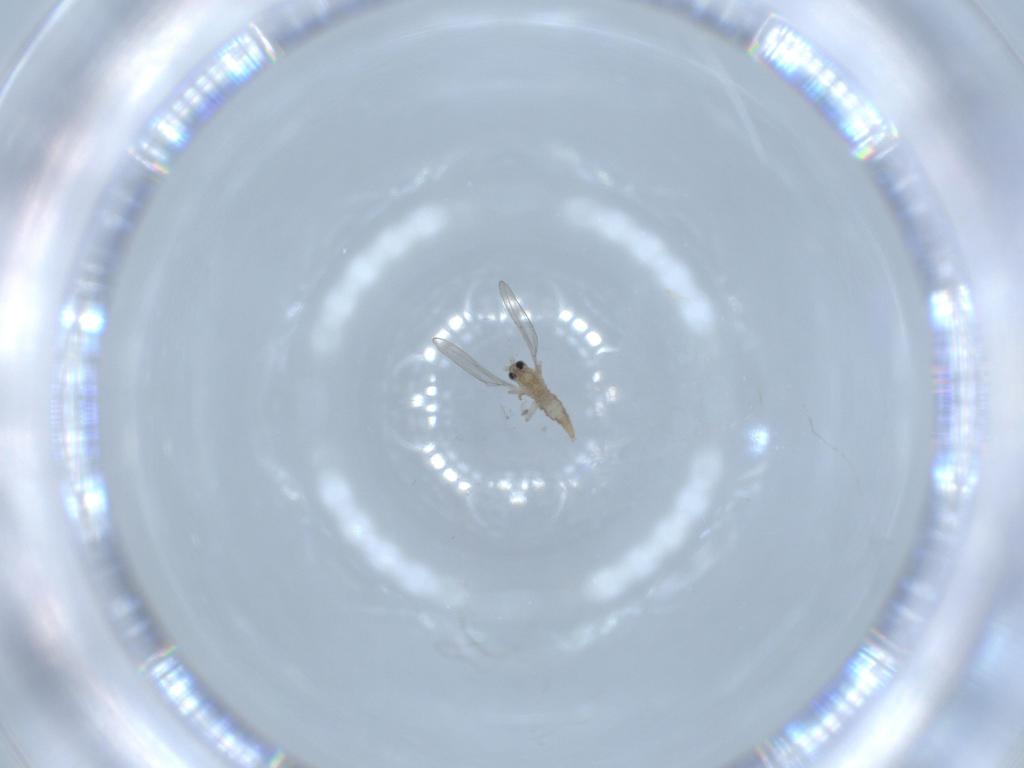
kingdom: Animalia
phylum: Arthropoda
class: Insecta
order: Diptera
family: Cecidomyiidae
